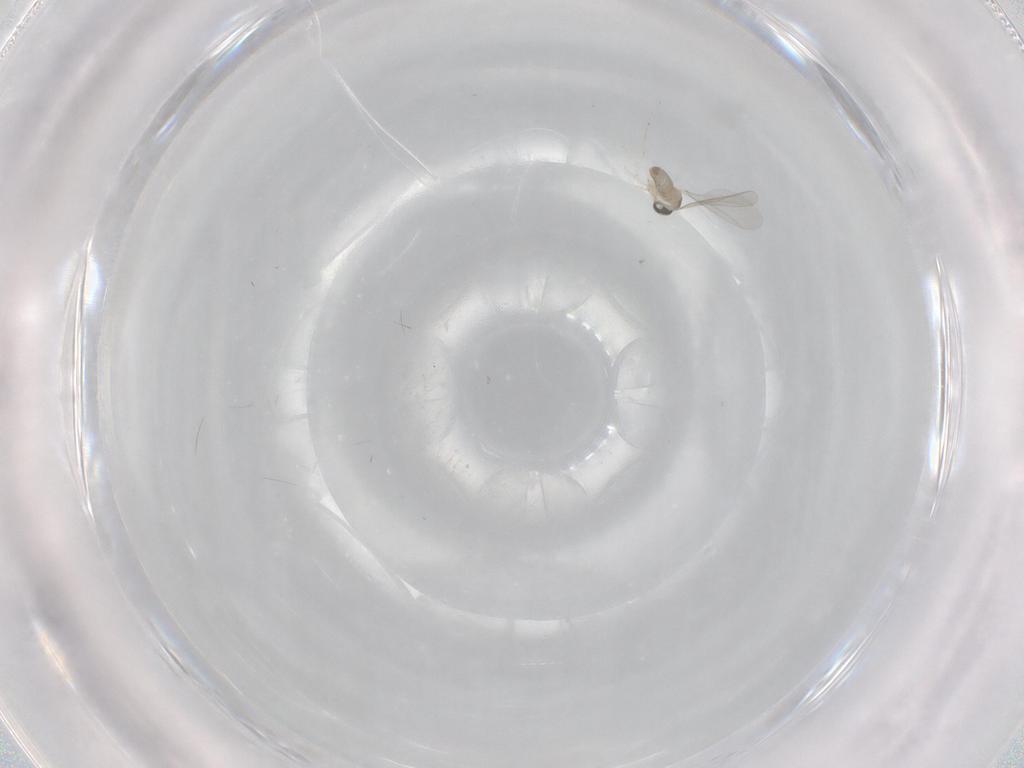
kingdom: Animalia
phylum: Arthropoda
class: Insecta
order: Diptera
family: Cecidomyiidae
